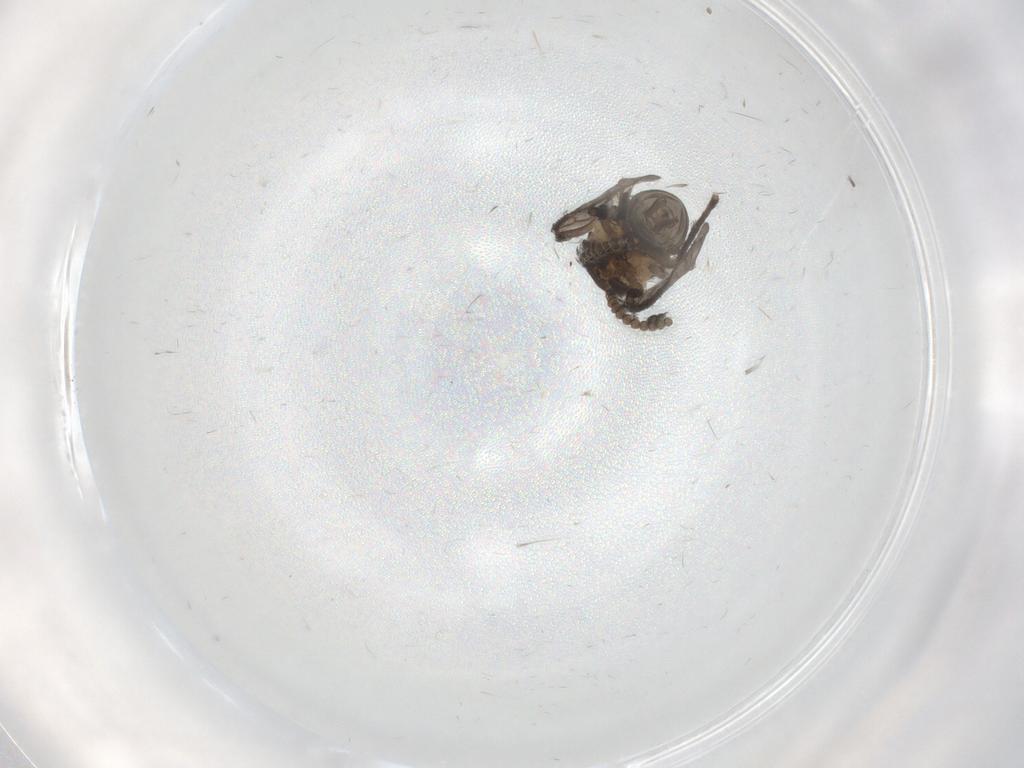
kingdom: Animalia
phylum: Arthropoda
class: Insecta
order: Diptera
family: Psychodidae
